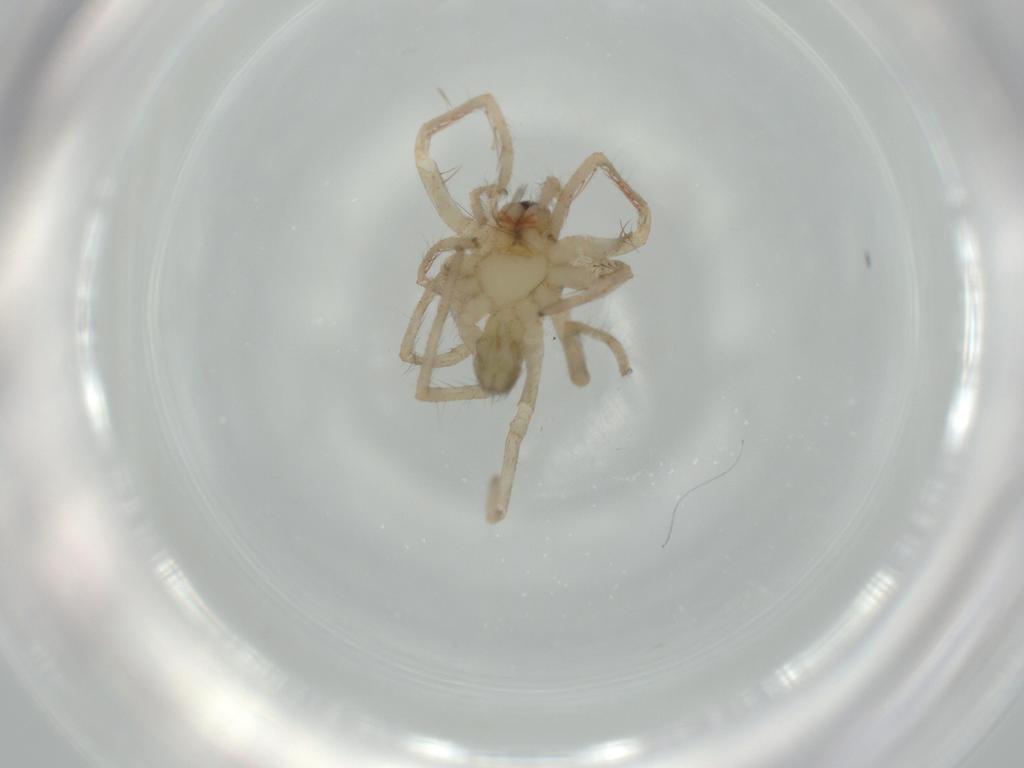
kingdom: Animalia
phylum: Arthropoda
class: Arachnida
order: Araneae
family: Ctenidae
